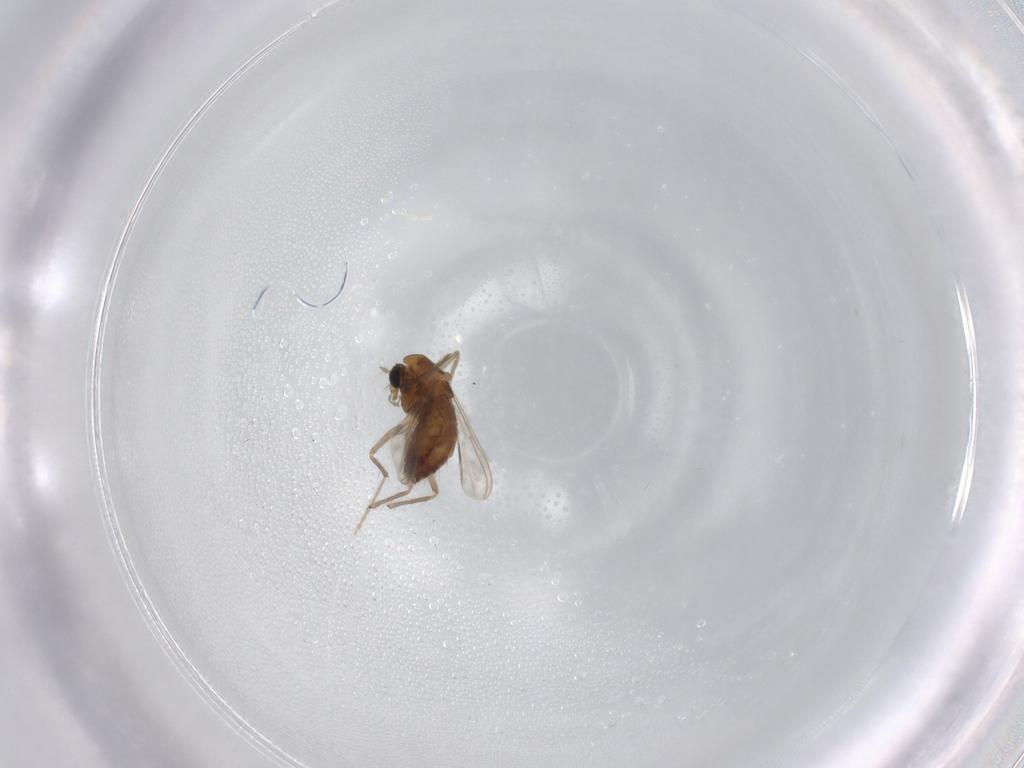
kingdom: Animalia
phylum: Arthropoda
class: Insecta
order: Diptera
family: Chironomidae
